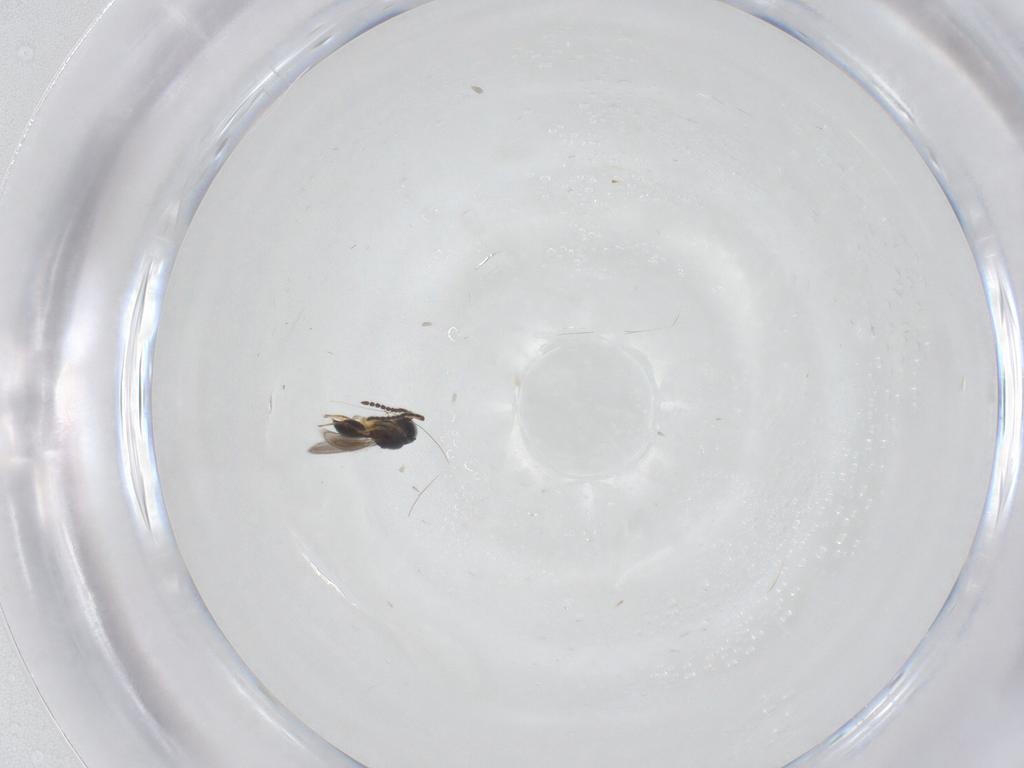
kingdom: Animalia
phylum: Arthropoda
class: Insecta
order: Hymenoptera
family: Scelionidae
